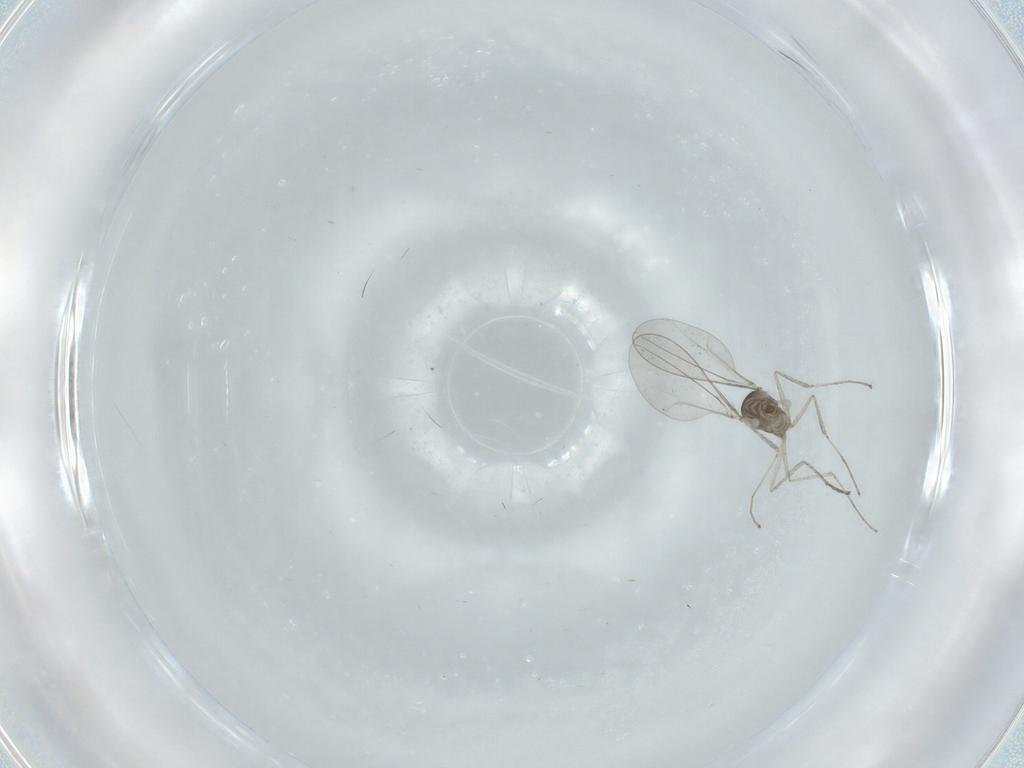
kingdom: Animalia
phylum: Arthropoda
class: Insecta
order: Diptera
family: Cecidomyiidae
